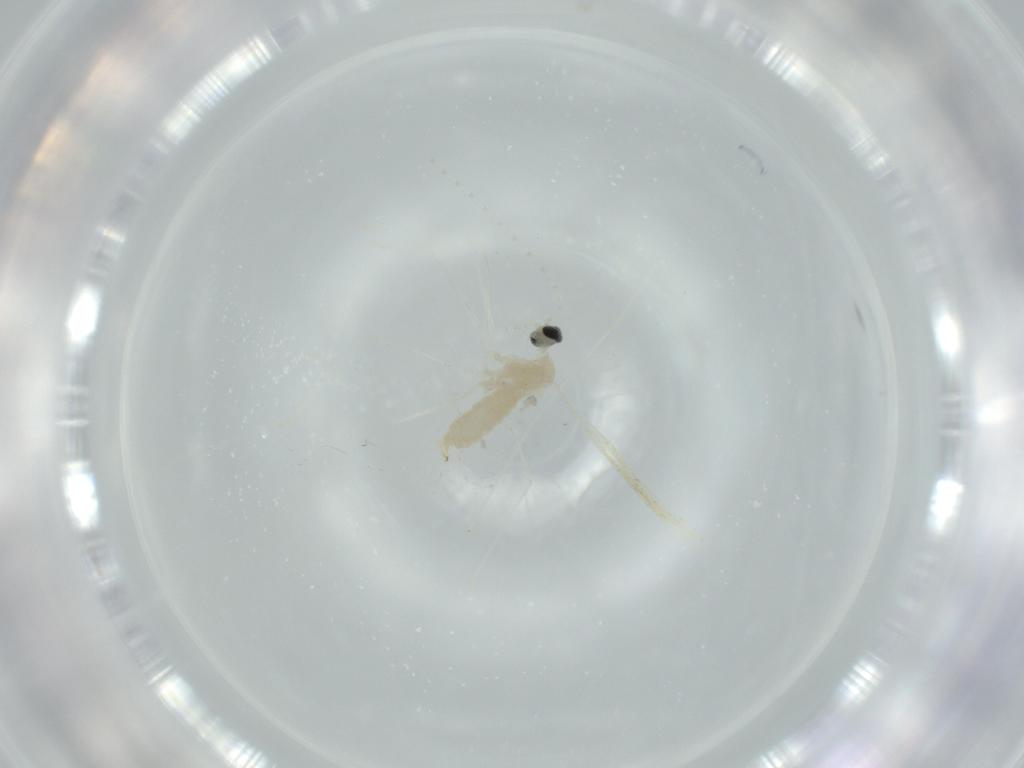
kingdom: Animalia
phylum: Arthropoda
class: Insecta
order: Diptera
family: Cecidomyiidae
